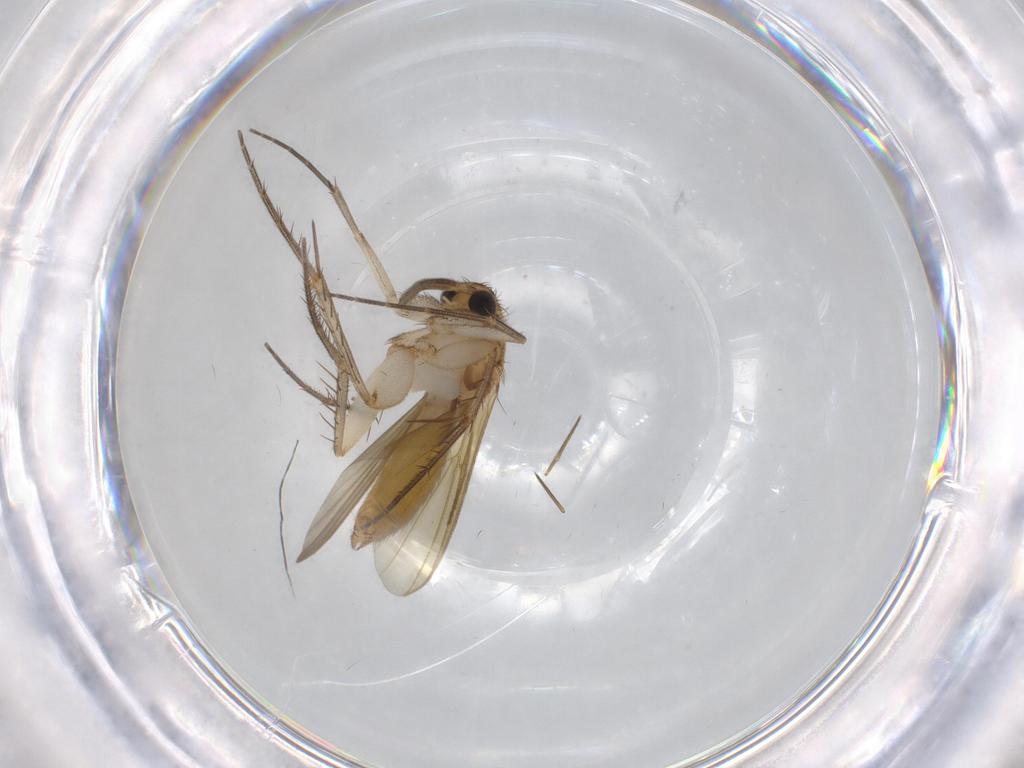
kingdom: Animalia
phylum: Arthropoda
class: Insecta
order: Diptera
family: Mycetophilidae
